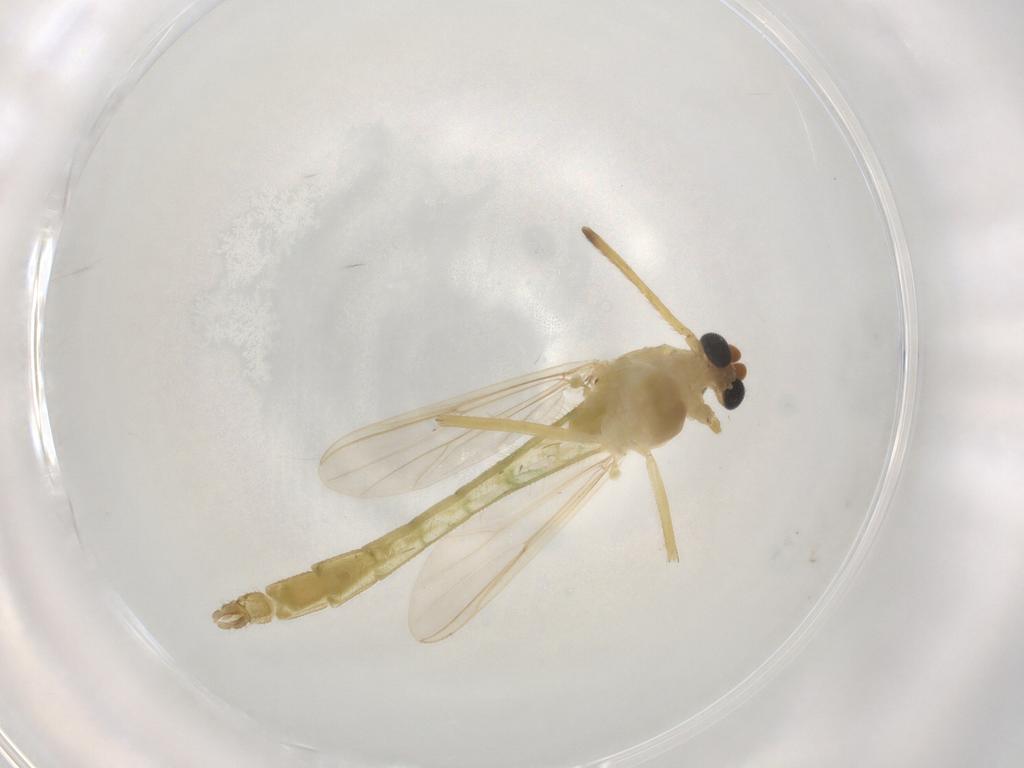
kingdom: Animalia
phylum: Arthropoda
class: Insecta
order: Diptera
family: Chironomidae
